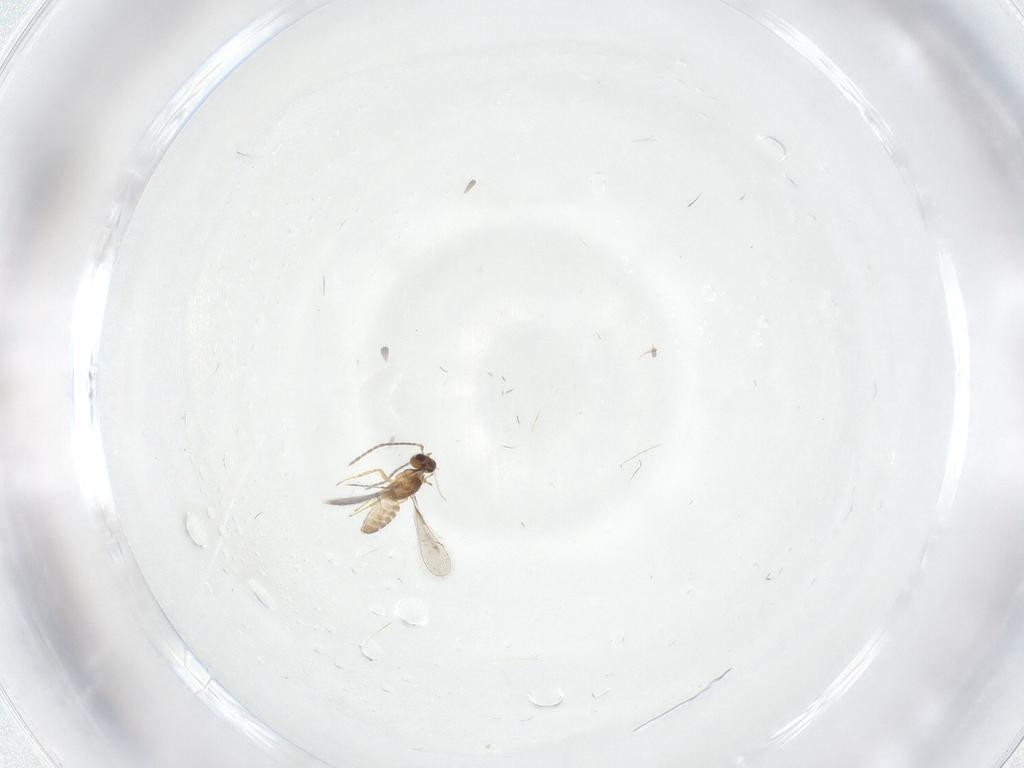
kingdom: Animalia
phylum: Arthropoda
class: Insecta
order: Hymenoptera
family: Mymaridae
